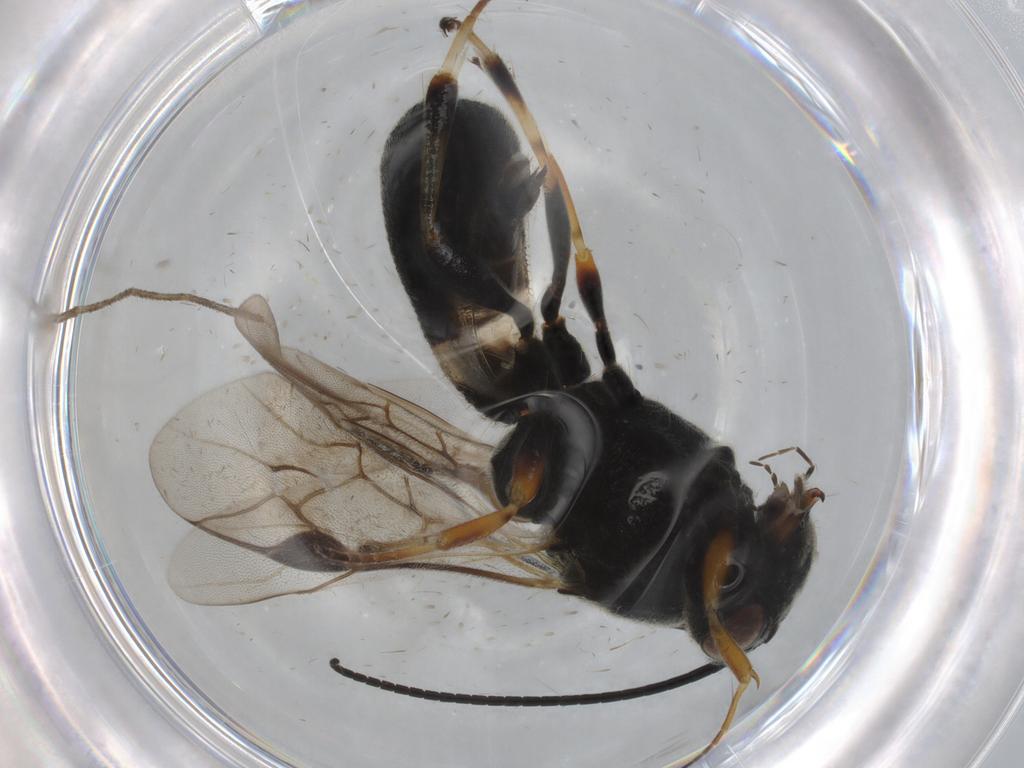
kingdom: Animalia
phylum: Arthropoda
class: Insecta
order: Hymenoptera
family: Braconidae
